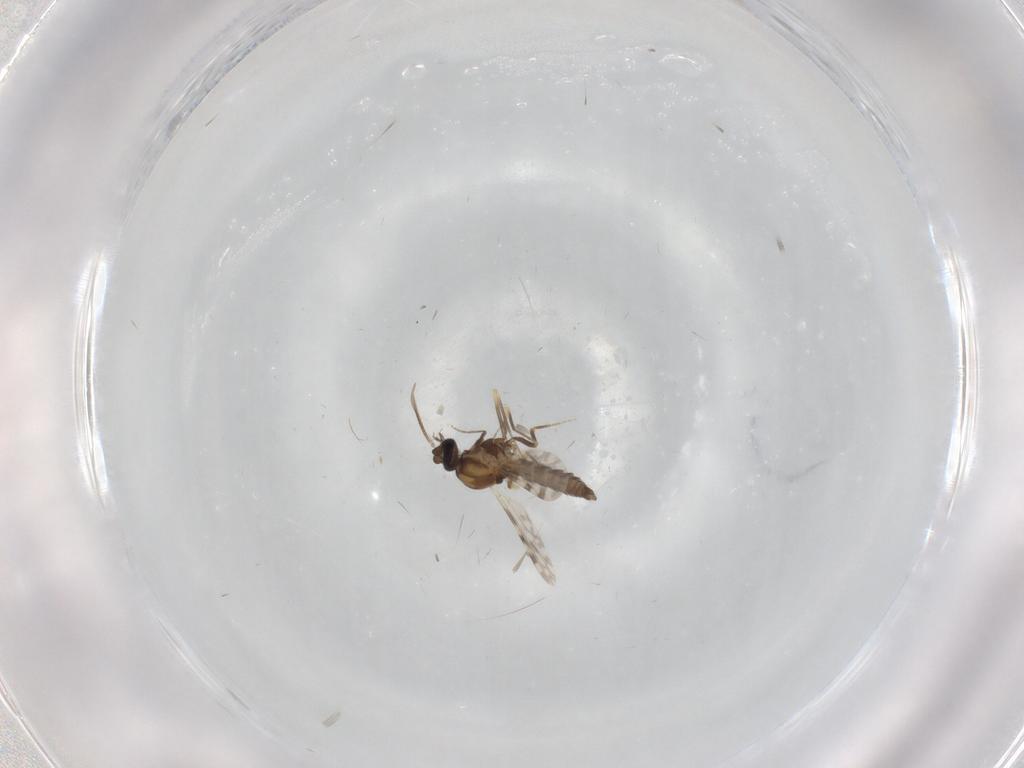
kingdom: Animalia
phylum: Arthropoda
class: Insecta
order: Diptera
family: Ceratopogonidae
